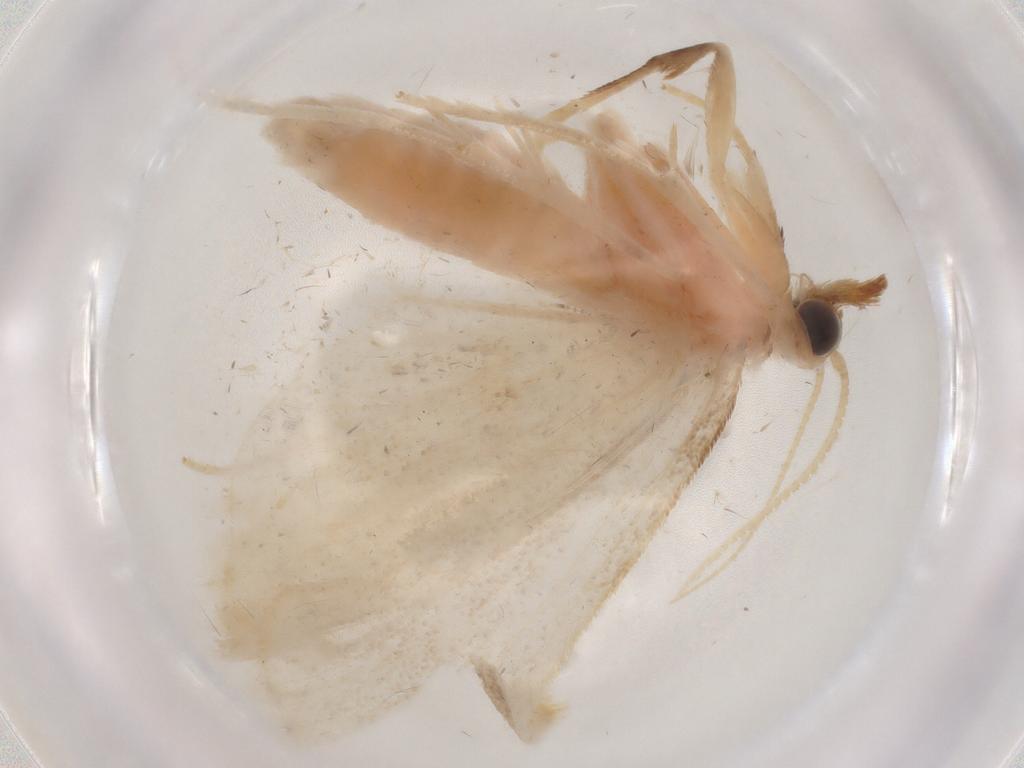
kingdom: Animalia
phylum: Arthropoda
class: Insecta
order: Lepidoptera
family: Crambidae
